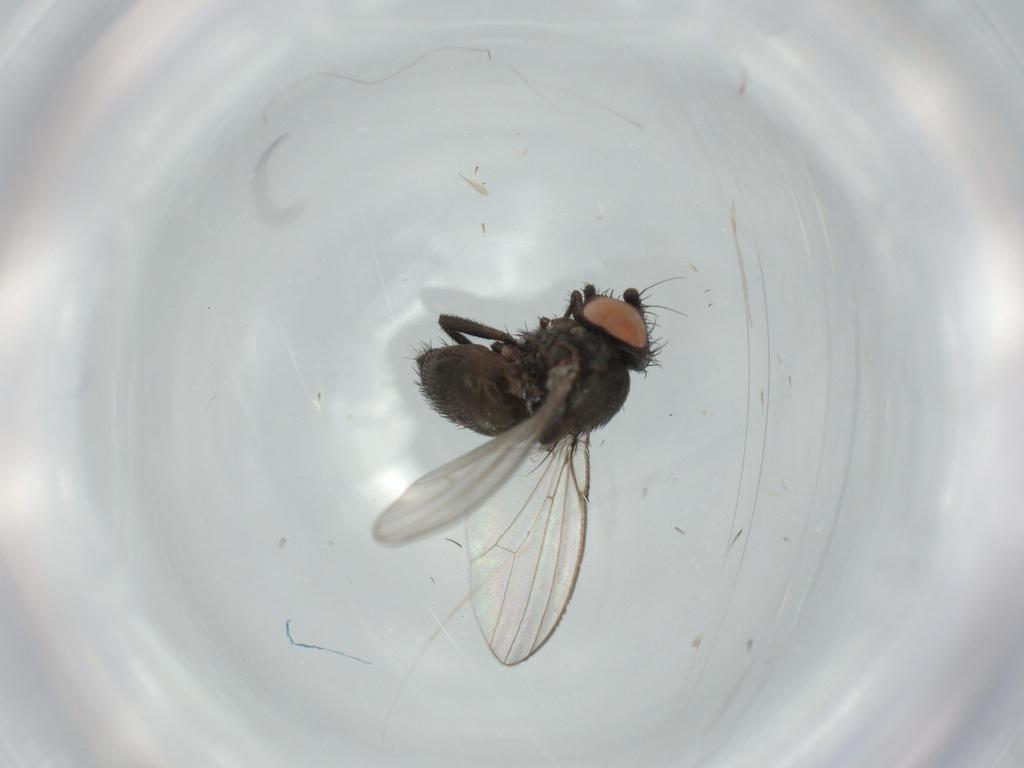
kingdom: Animalia
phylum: Arthropoda
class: Insecta
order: Diptera
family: Milichiidae
